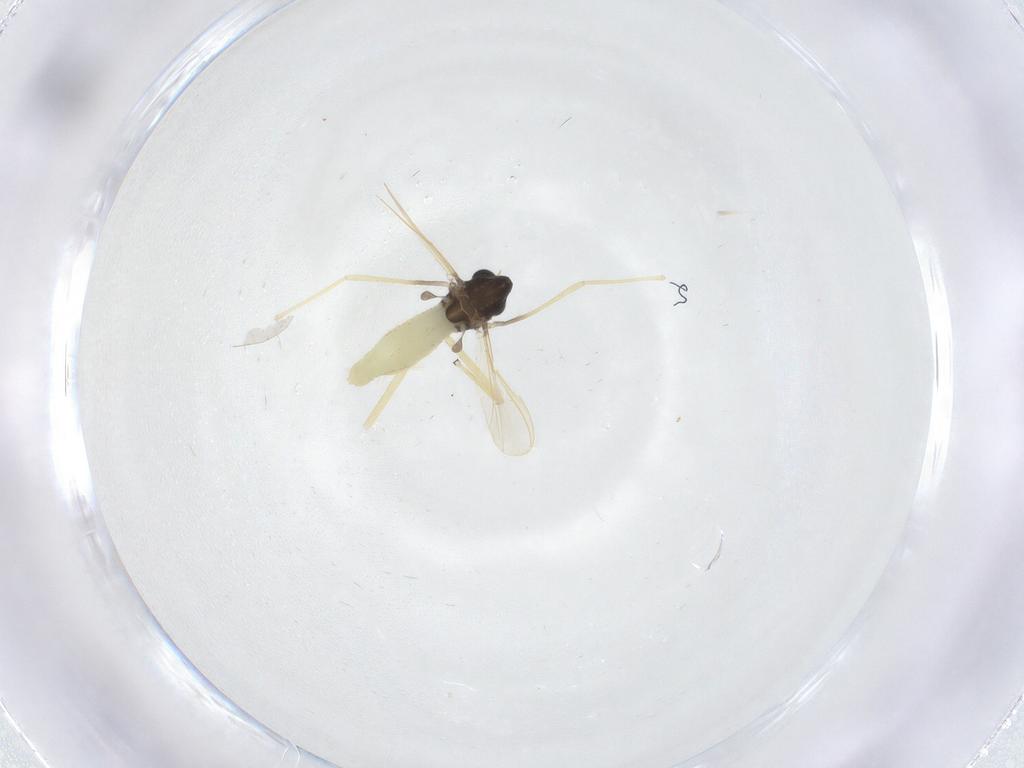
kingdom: Animalia
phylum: Arthropoda
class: Insecta
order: Diptera
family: Chironomidae
